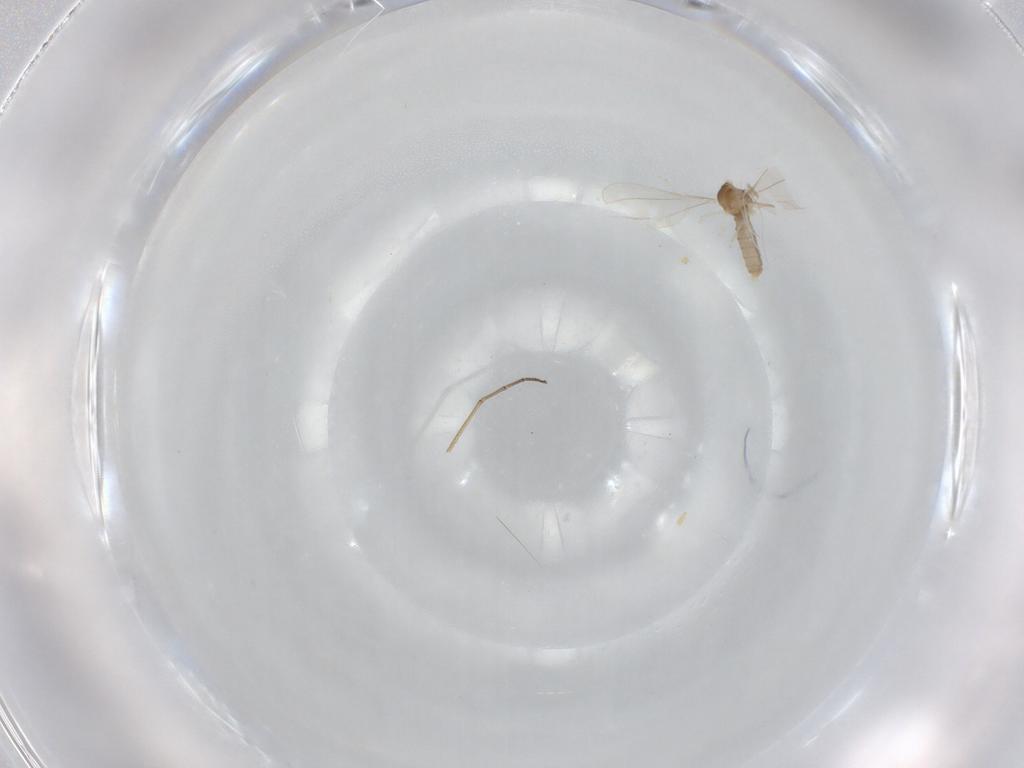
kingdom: Animalia
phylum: Arthropoda
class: Insecta
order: Diptera
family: Cecidomyiidae
